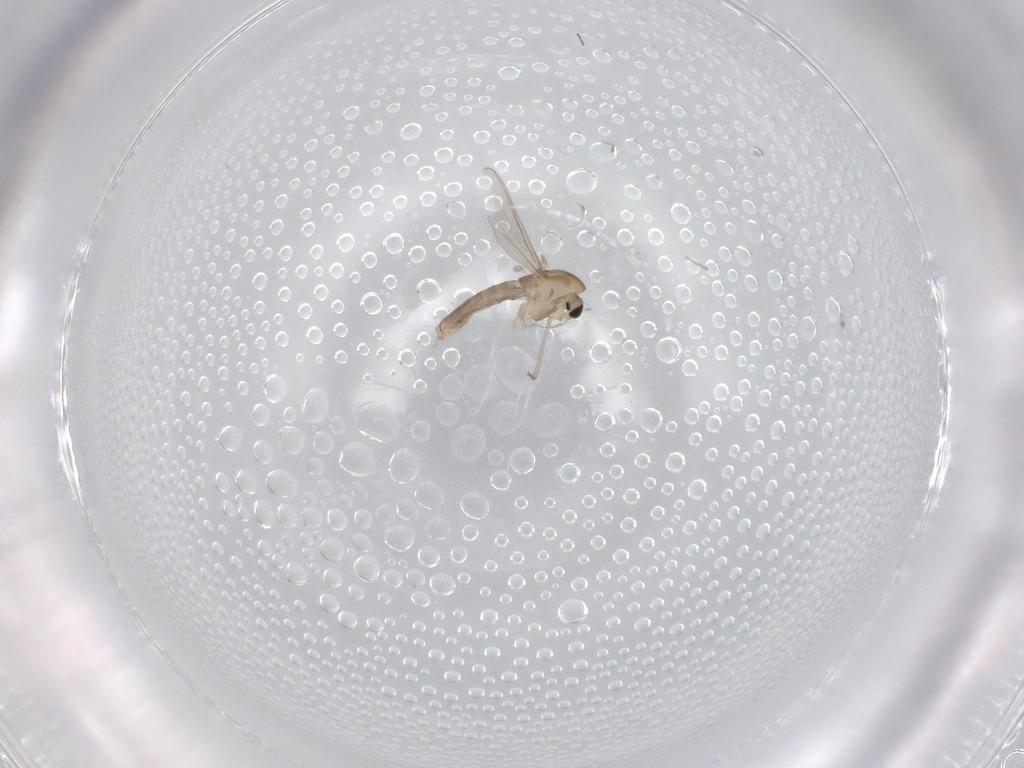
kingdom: Animalia
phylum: Arthropoda
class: Insecta
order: Diptera
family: Chironomidae
